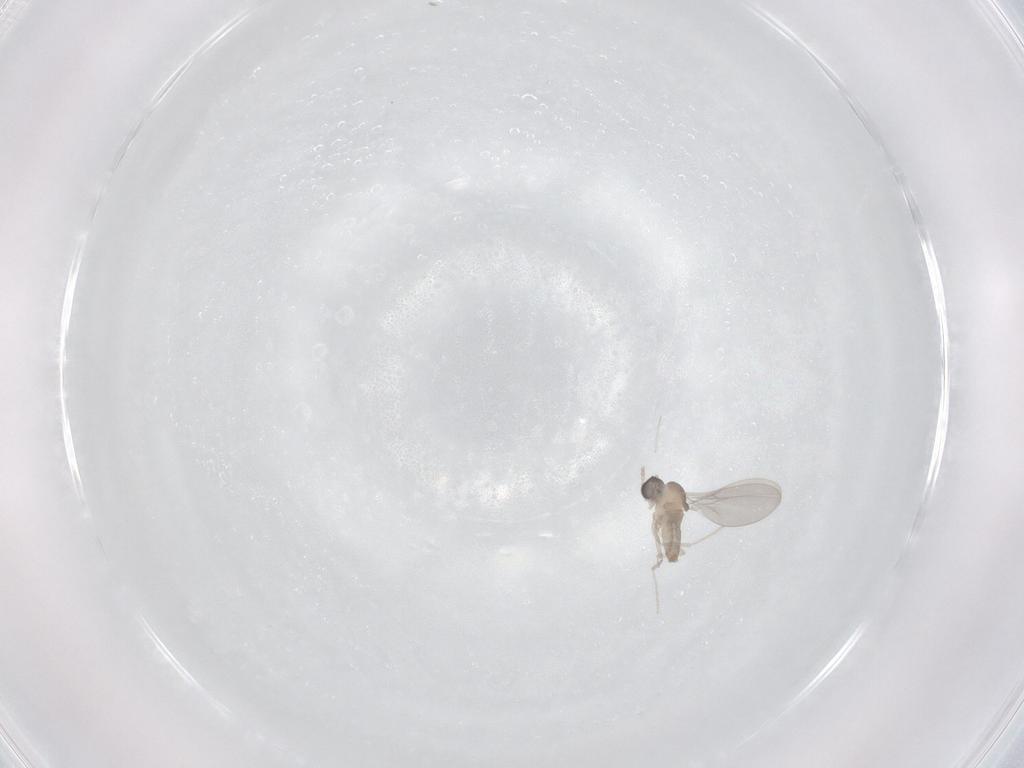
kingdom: Animalia
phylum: Arthropoda
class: Insecta
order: Diptera
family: Cecidomyiidae
